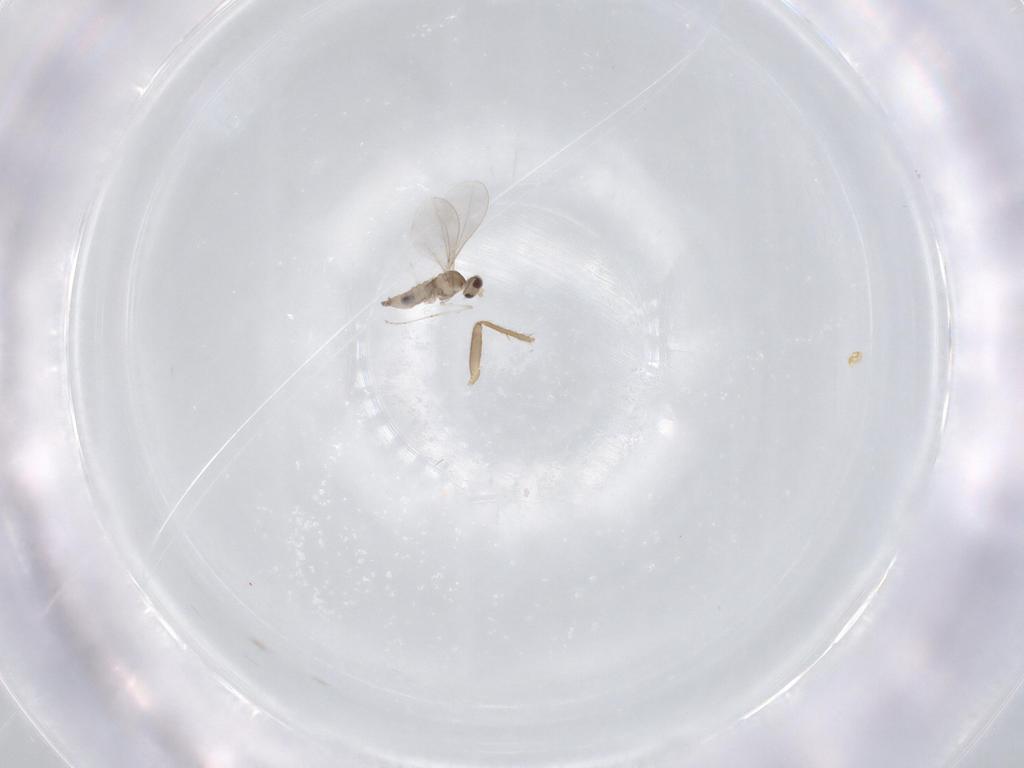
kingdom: Animalia
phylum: Arthropoda
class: Insecta
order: Diptera
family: Cecidomyiidae
